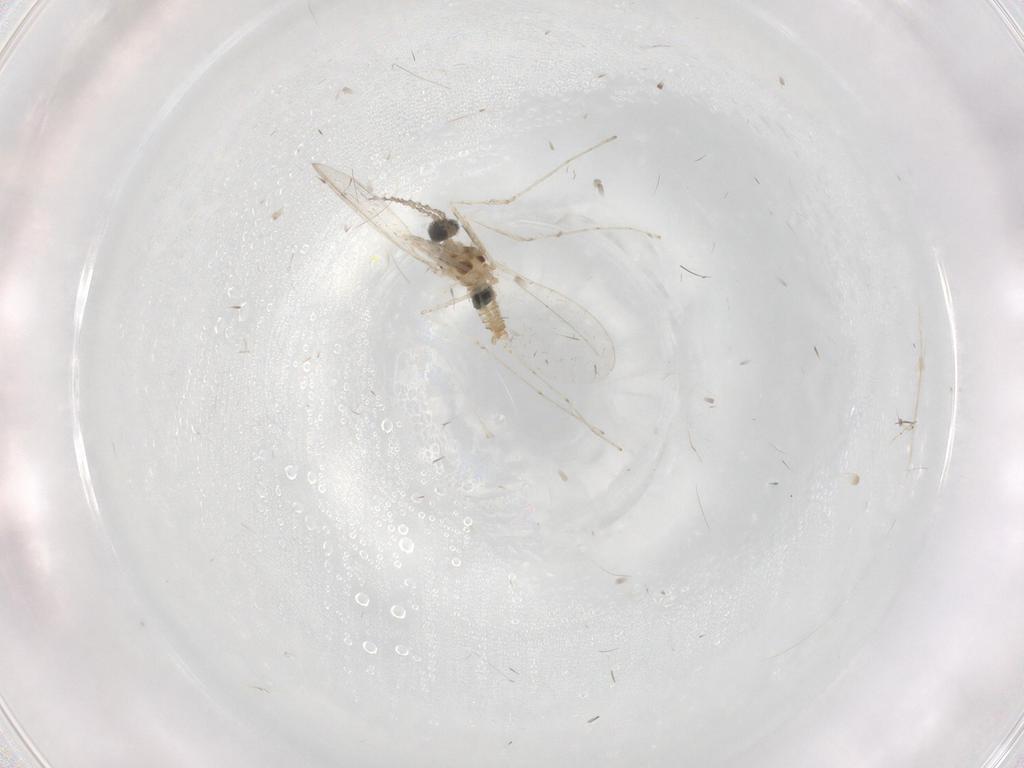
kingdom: Animalia
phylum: Arthropoda
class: Insecta
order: Diptera
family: Cecidomyiidae
